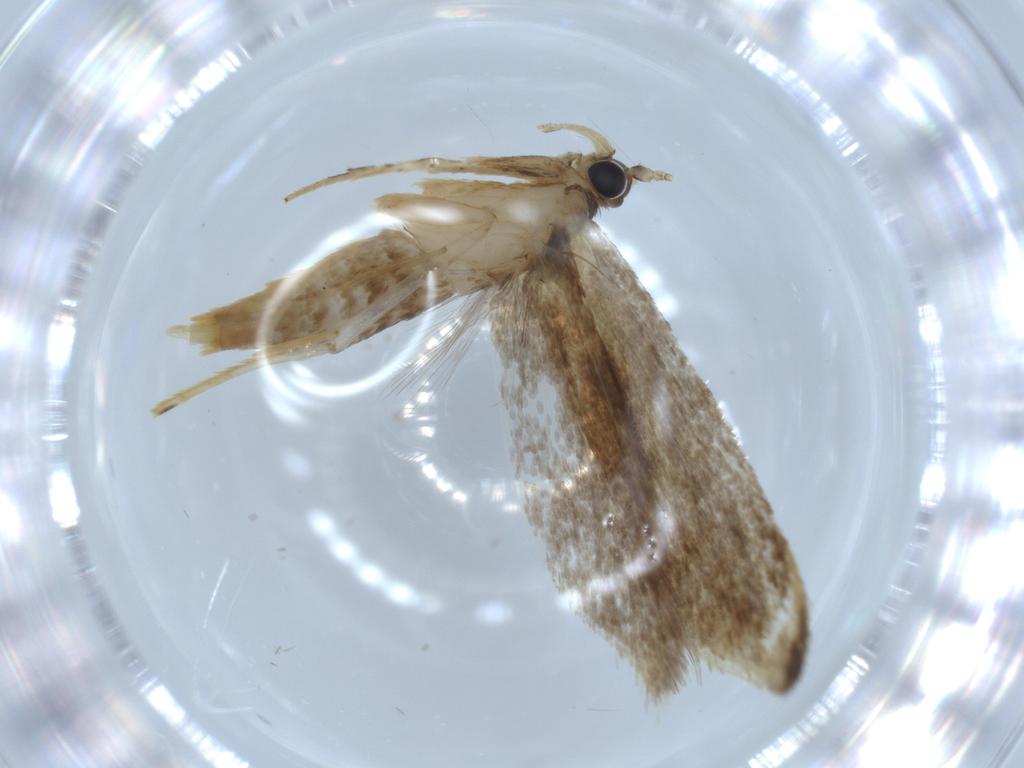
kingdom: Animalia
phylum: Arthropoda
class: Insecta
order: Lepidoptera
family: Tineidae
